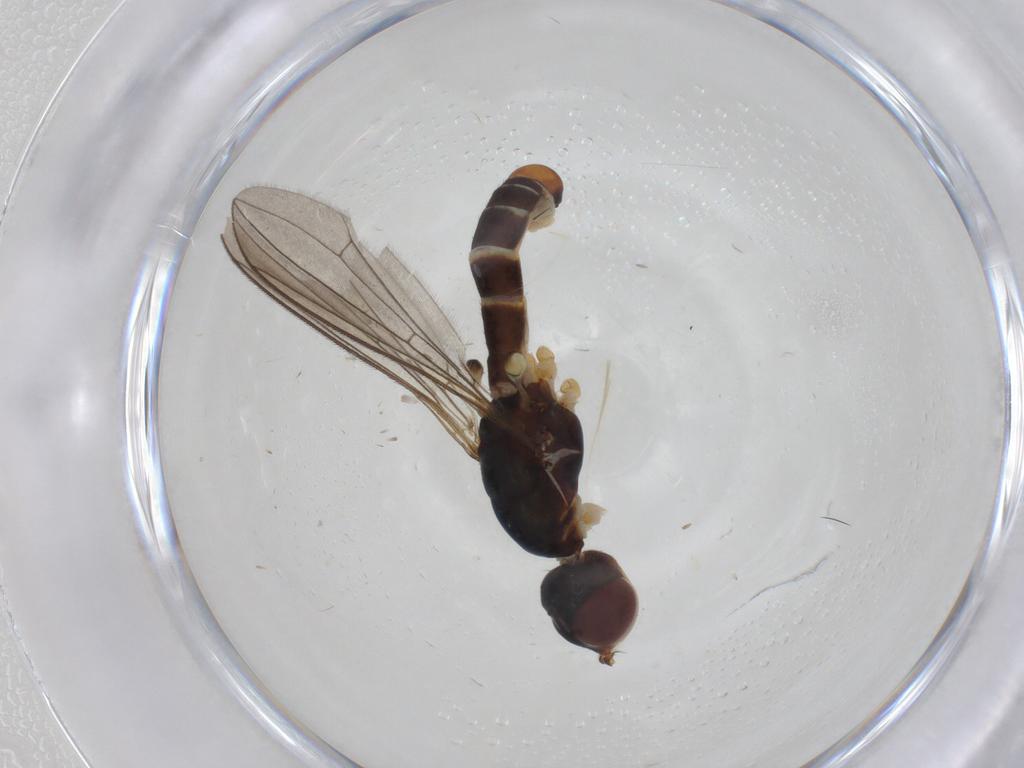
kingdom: Animalia
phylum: Arthropoda
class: Insecta
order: Diptera
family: Micropezidae
